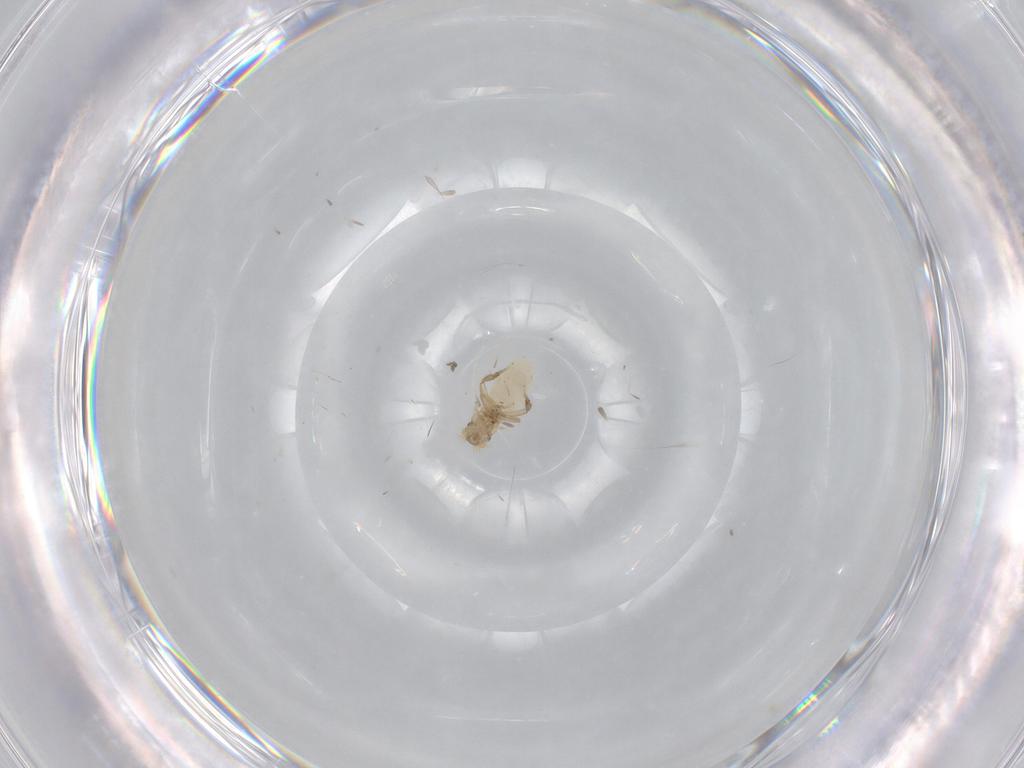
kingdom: Animalia
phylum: Arthropoda
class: Insecta
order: Diptera
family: Phoridae
